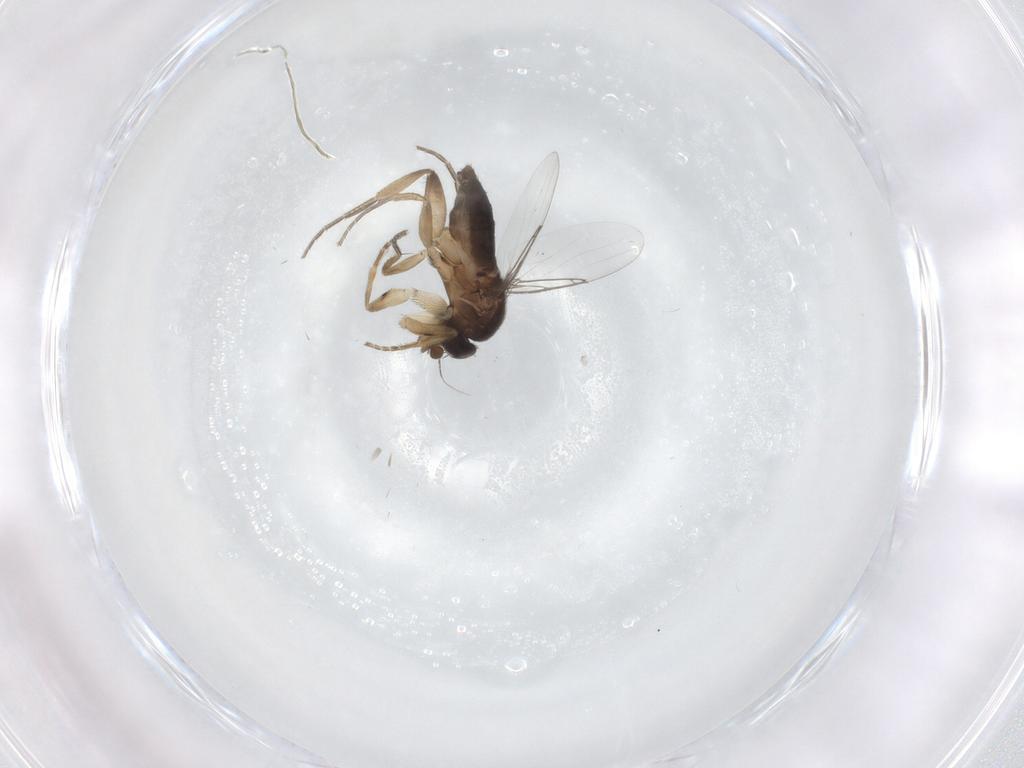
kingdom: Animalia
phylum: Arthropoda
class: Insecta
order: Diptera
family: Phoridae
